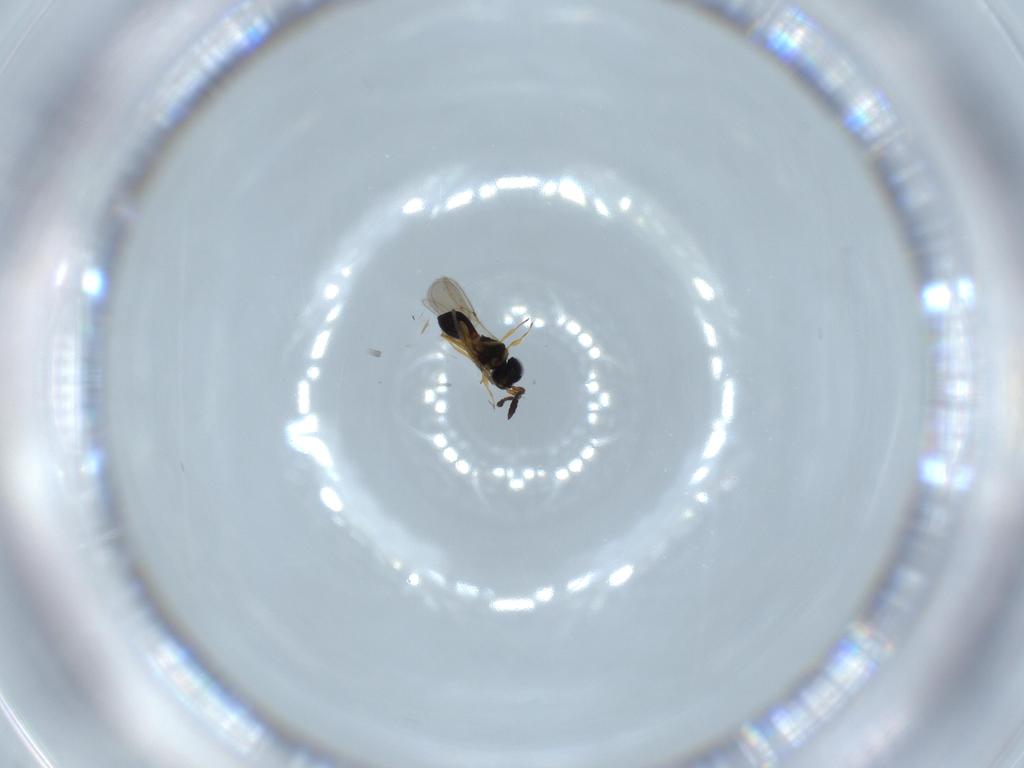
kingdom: Animalia
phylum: Arthropoda
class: Insecta
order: Hymenoptera
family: Scelionidae
